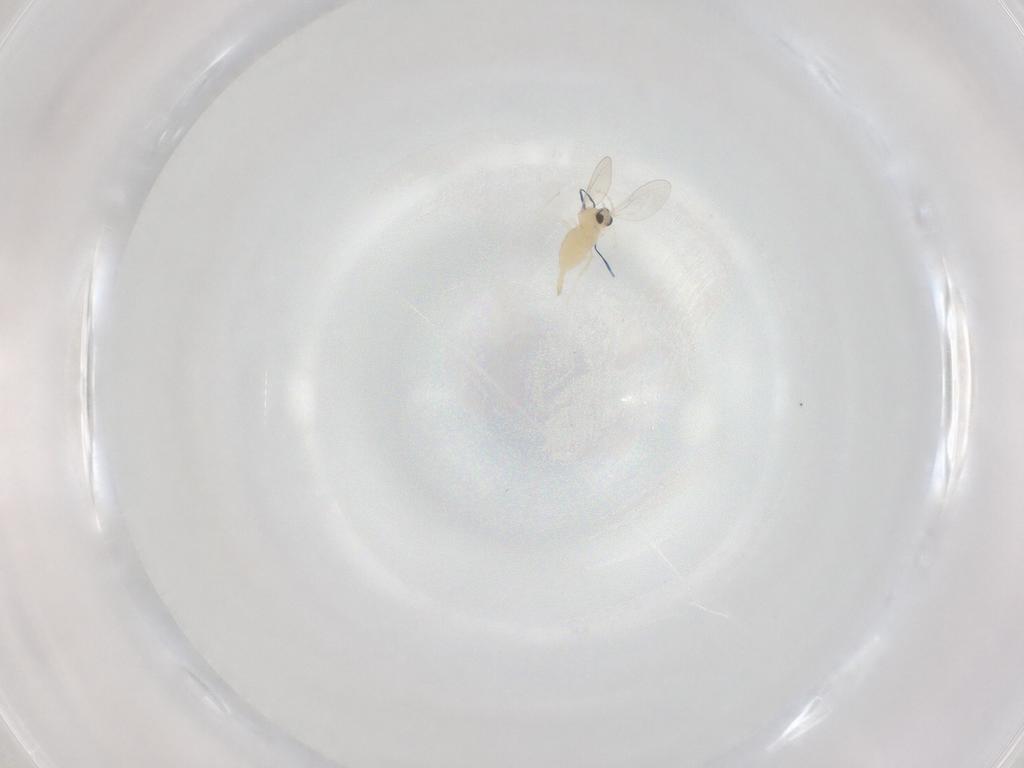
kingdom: Animalia
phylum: Arthropoda
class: Insecta
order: Diptera
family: Cecidomyiidae
